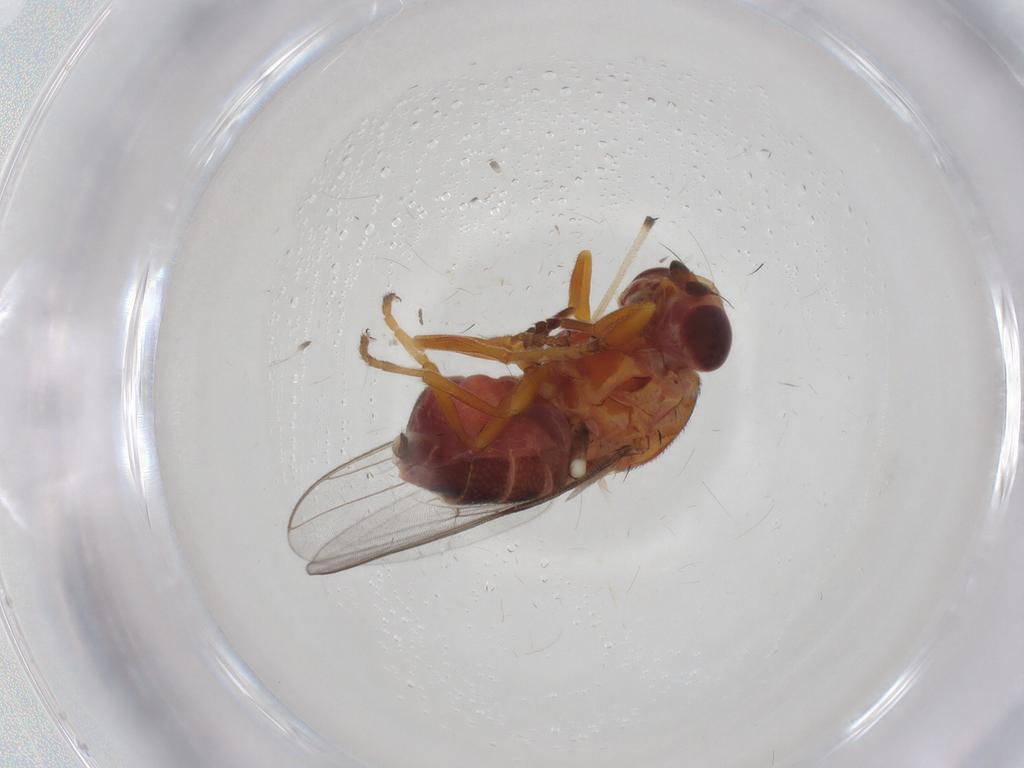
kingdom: Animalia
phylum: Arthropoda
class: Insecta
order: Diptera
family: Chloropidae
